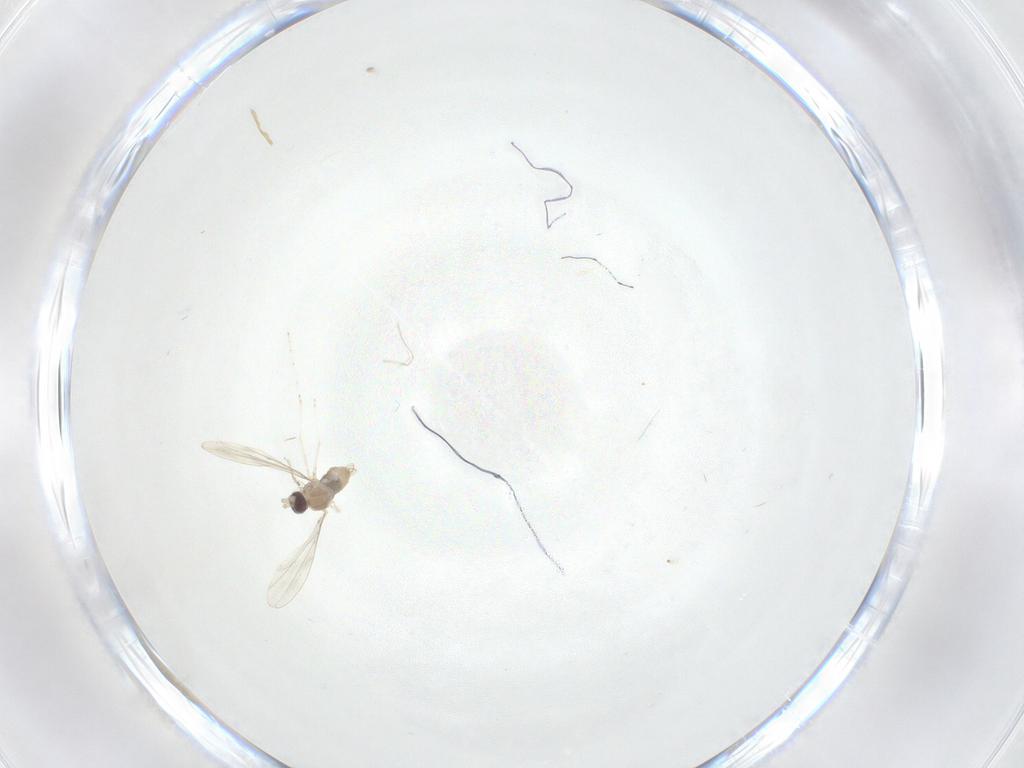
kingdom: Animalia
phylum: Arthropoda
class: Insecta
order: Diptera
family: Cecidomyiidae
